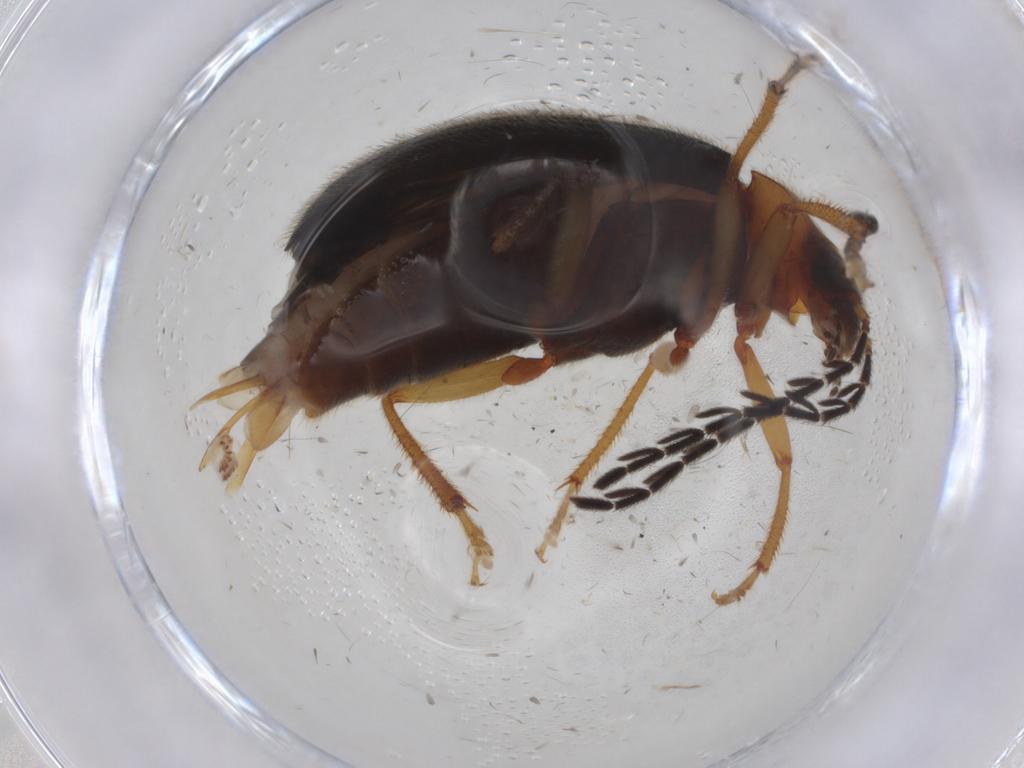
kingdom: Animalia
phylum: Arthropoda
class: Insecta
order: Coleoptera
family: Ptilodactylidae
